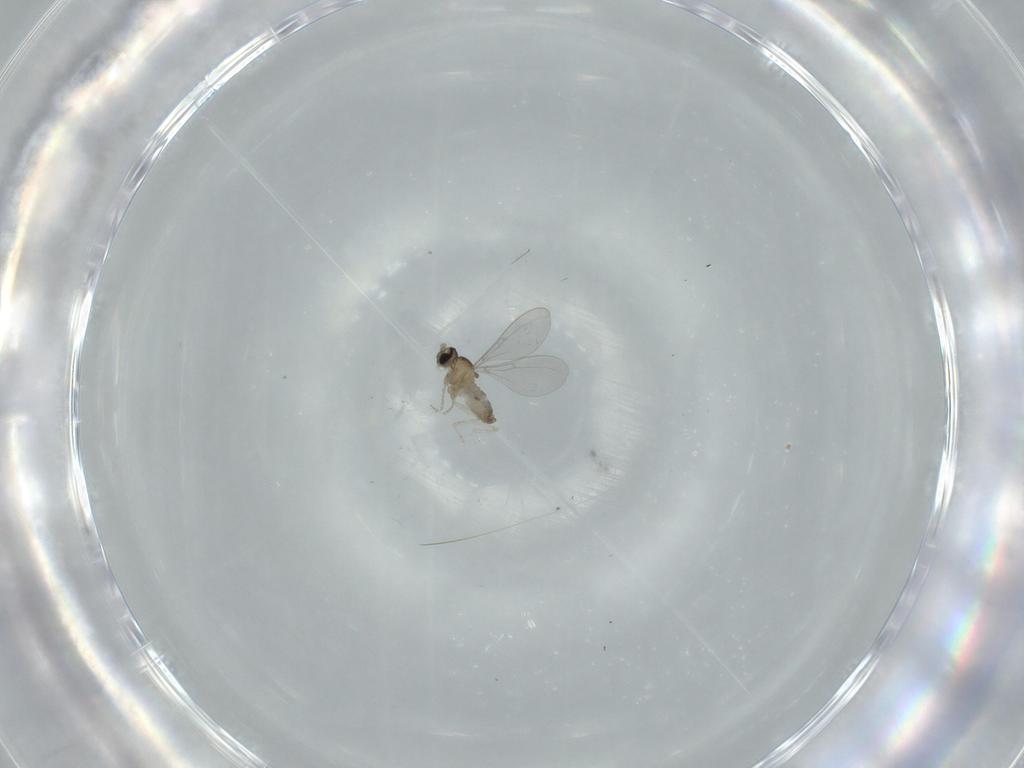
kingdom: Animalia
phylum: Arthropoda
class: Insecta
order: Diptera
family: Cecidomyiidae
